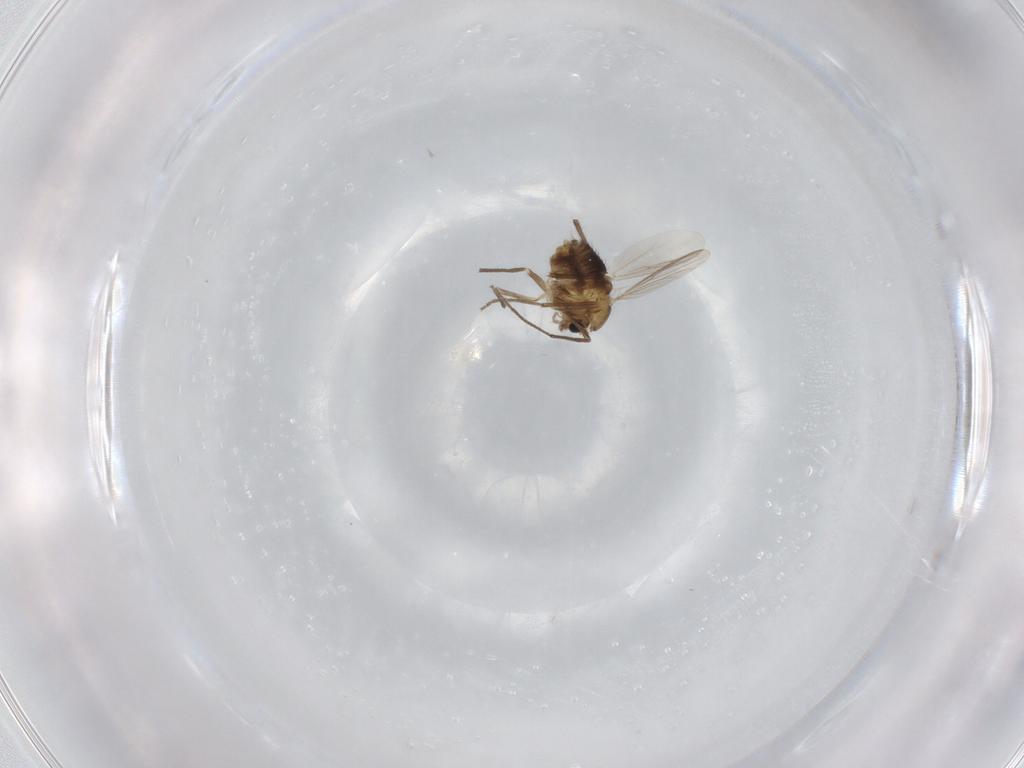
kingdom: Animalia
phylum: Arthropoda
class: Insecta
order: Diptera
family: Chironomidae
